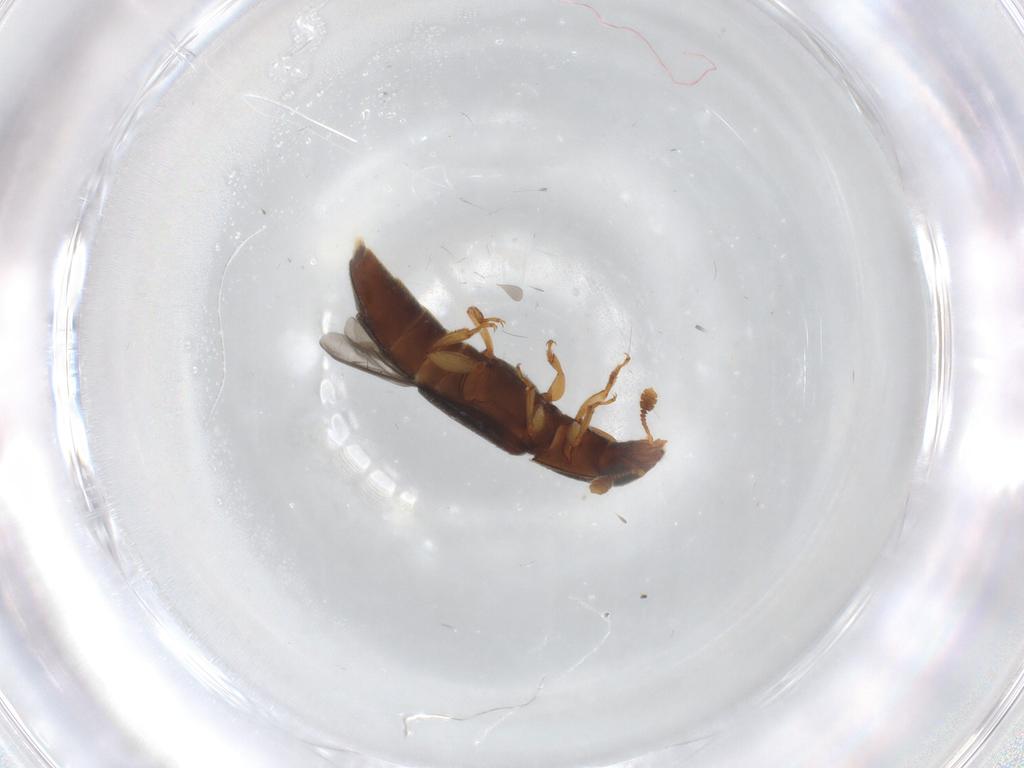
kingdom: Animalia
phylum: Arthropoda
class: Insecta
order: Coleoptera
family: Nitidulidae
